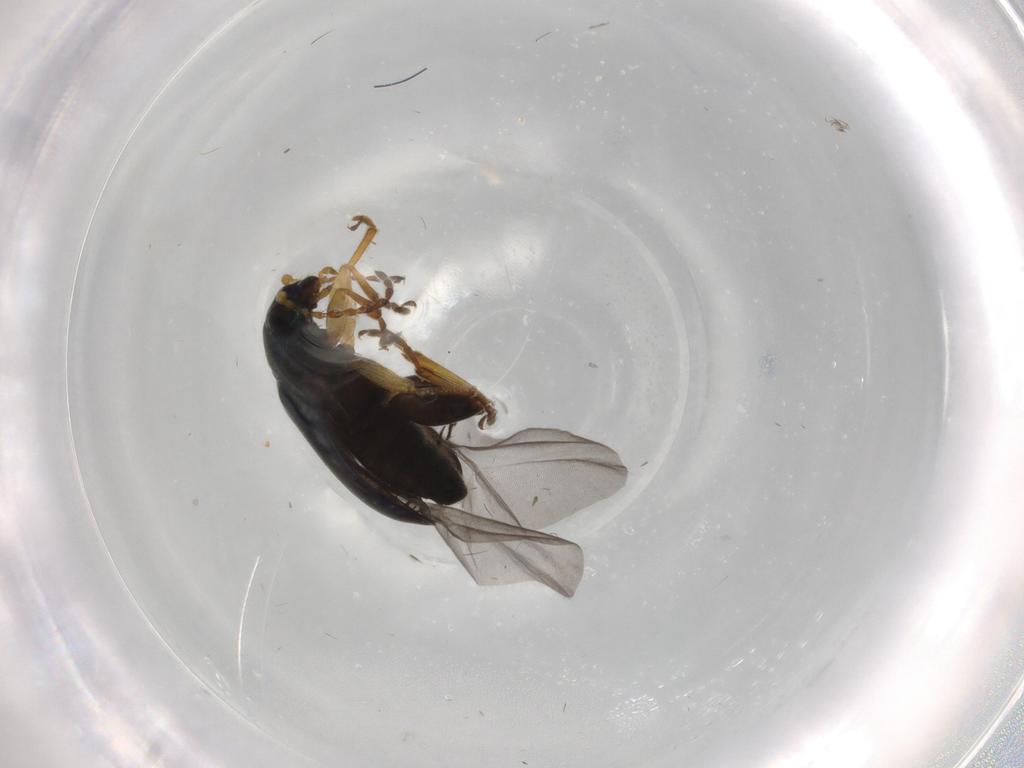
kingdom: Animalia
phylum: Arthropoda
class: Insecta
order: Coleoptera
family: Chrysomelidae
